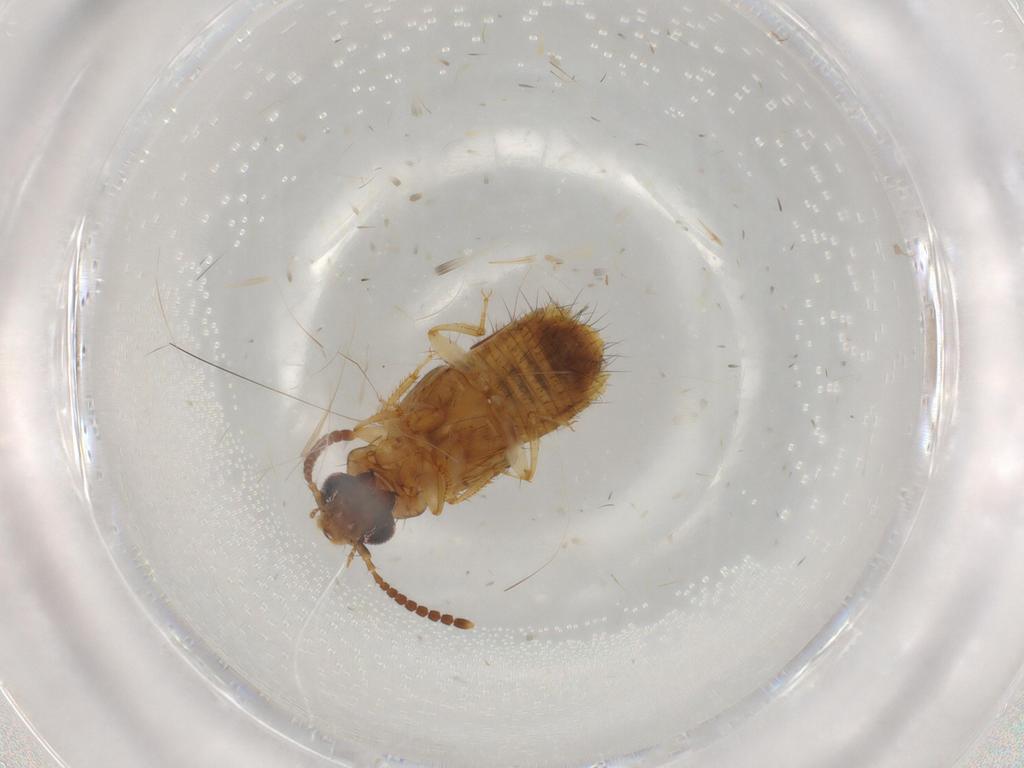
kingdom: Animalia
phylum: Arthropoda
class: Insecta
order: Coleoptera
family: Staphylinidae
